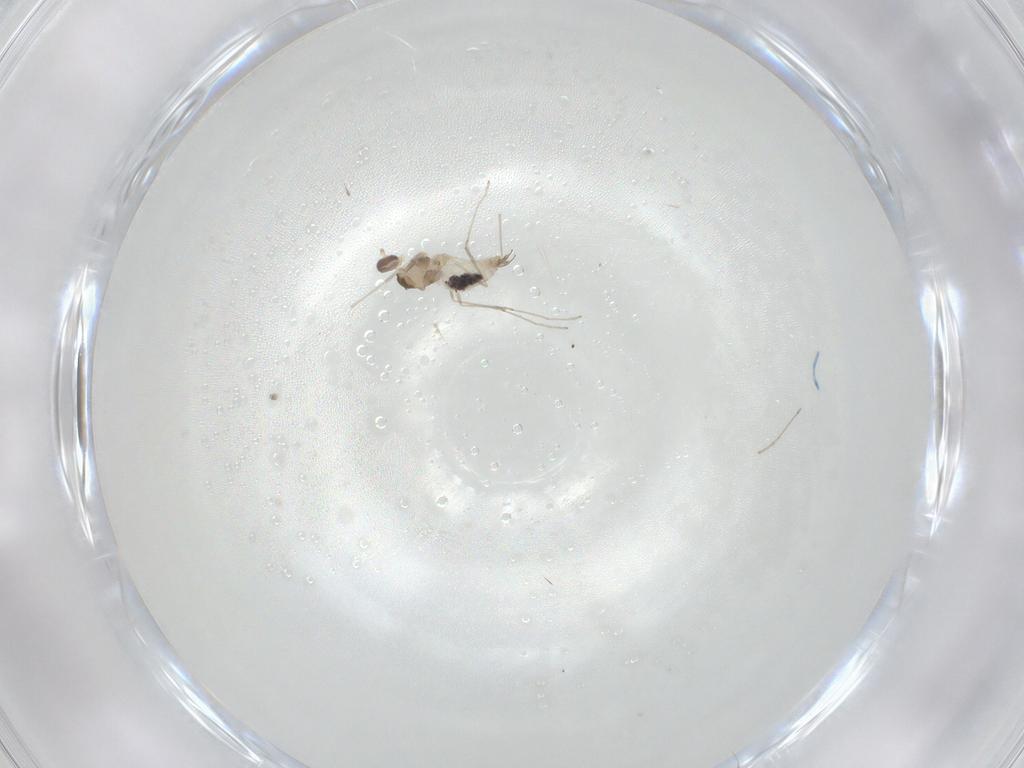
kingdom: Animalia
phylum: Arthropoda
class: Insecta
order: Diptera
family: Chironomidae
